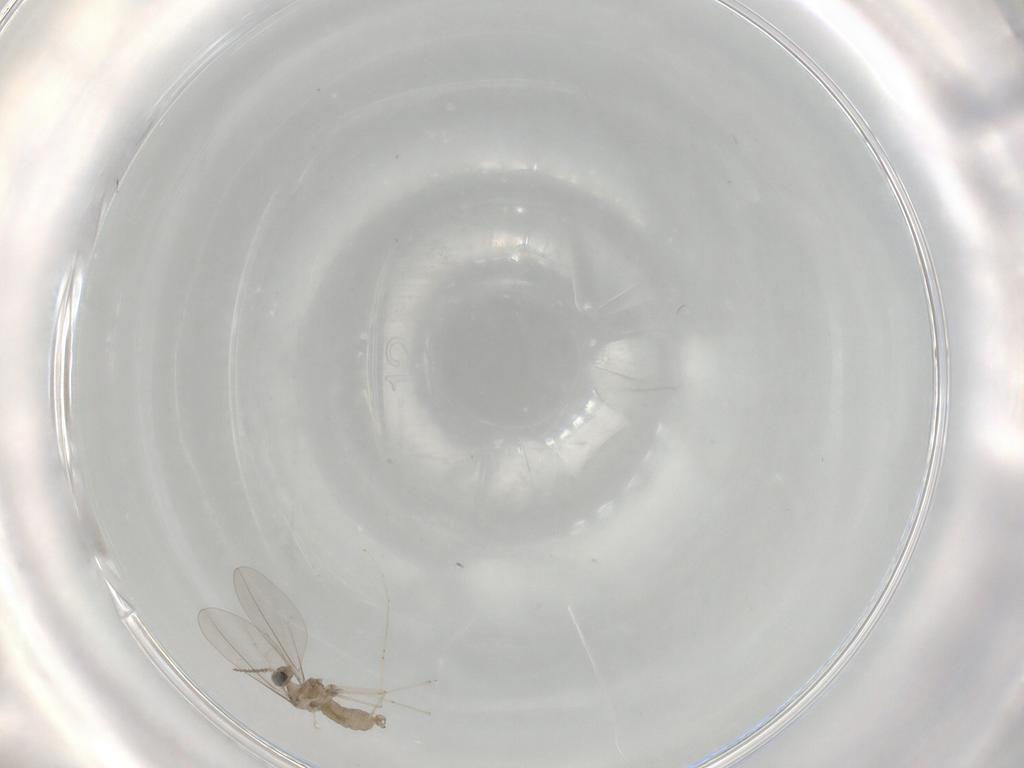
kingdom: Animalia
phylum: Arthropoda
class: Insecta
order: Diptera
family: Cecidomyiidae
